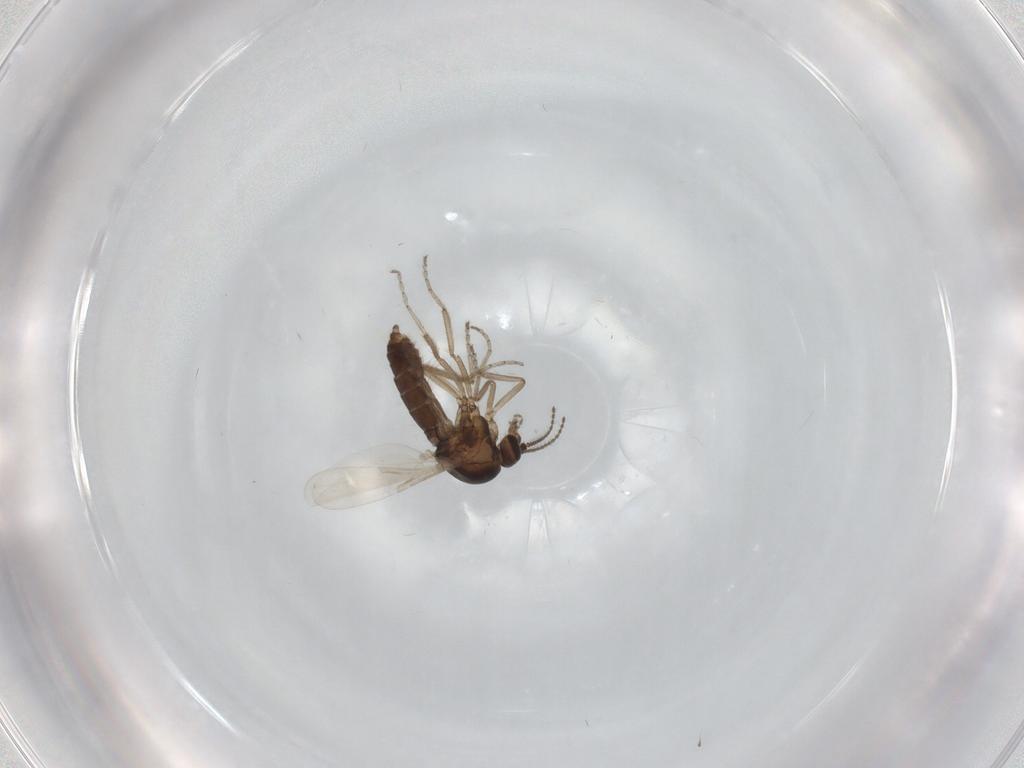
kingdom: Animalia
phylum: Arthropoda
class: Insecta
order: Diptera
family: Ceratopogonidae
